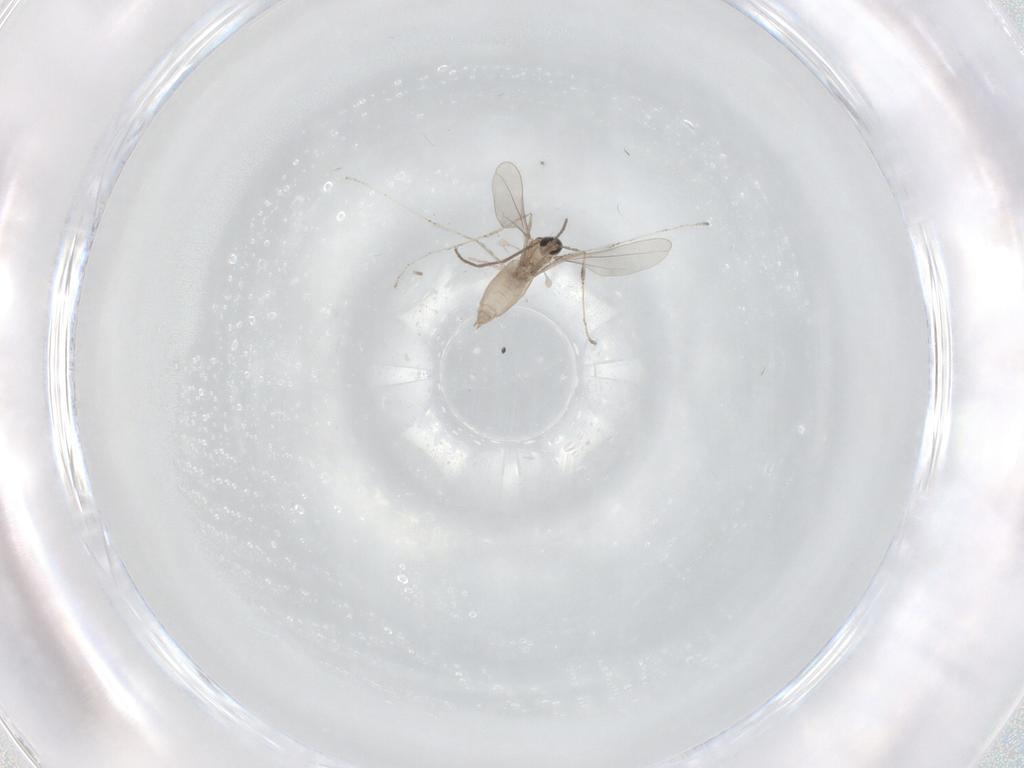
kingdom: Animalia
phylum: Arthropoda
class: Insecta
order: Diptera
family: Cecidomyiidae
